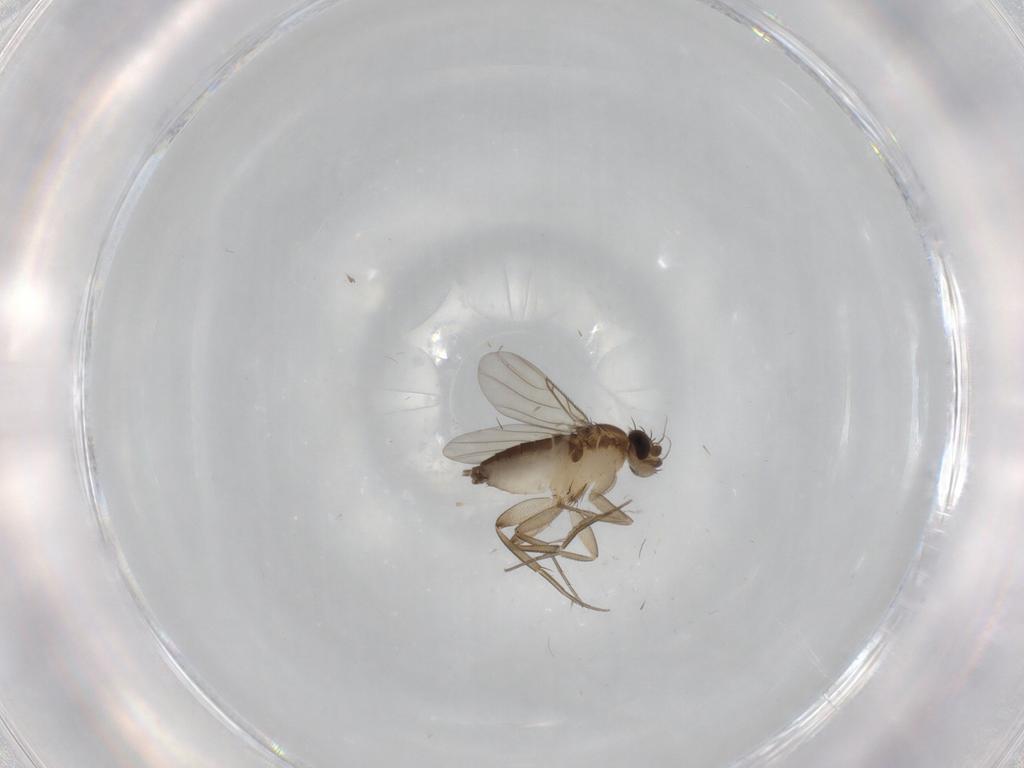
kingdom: Animalia
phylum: Arthropoda
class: Insecta
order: Diptera
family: Phoridae
